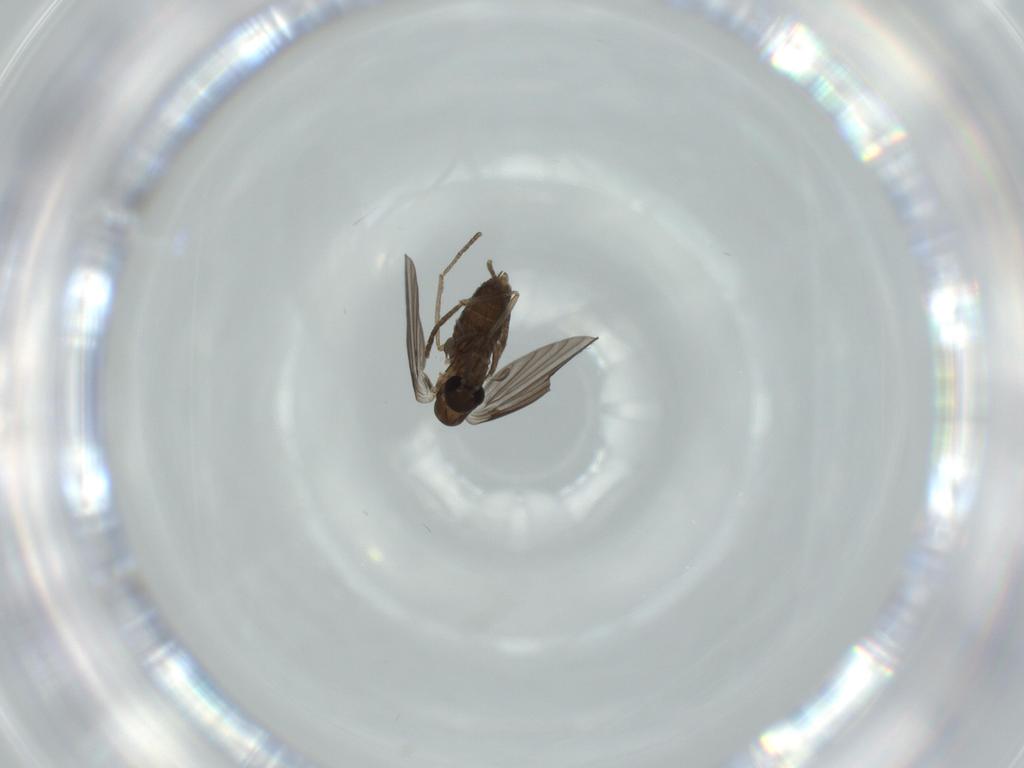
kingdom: Animalia
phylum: Arthropoda
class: Insecta
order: Diptera
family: Psychodidae
